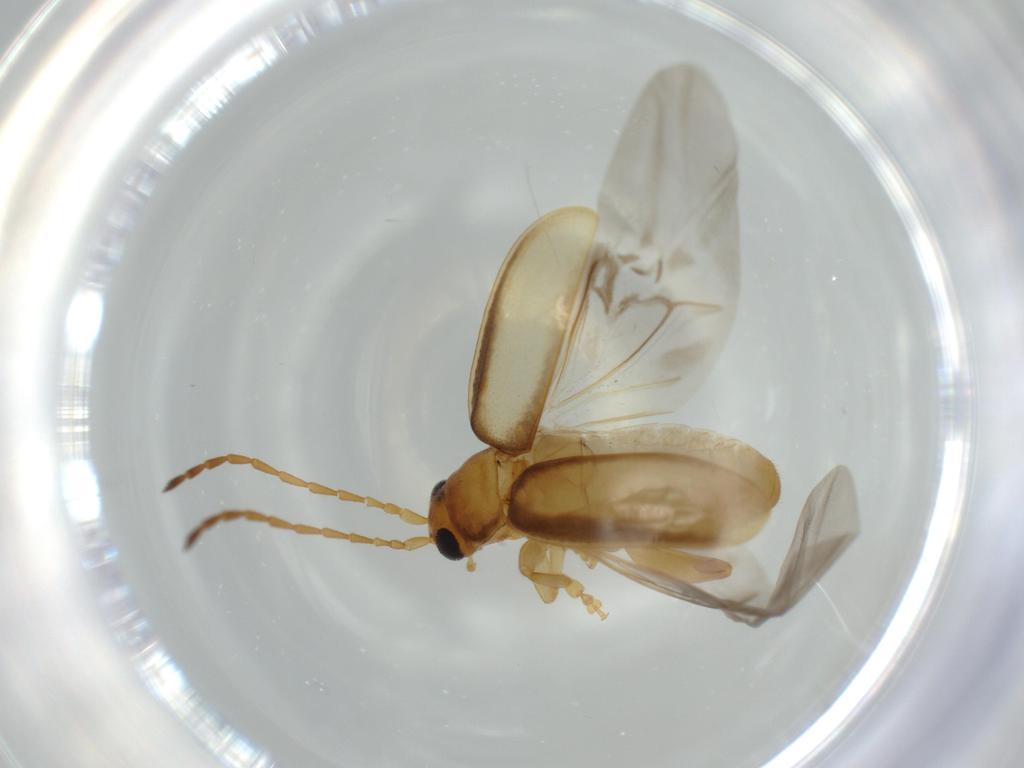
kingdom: Animalia
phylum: Arthropoda
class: Insecta
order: Coleoptera
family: Chrysomelidae
